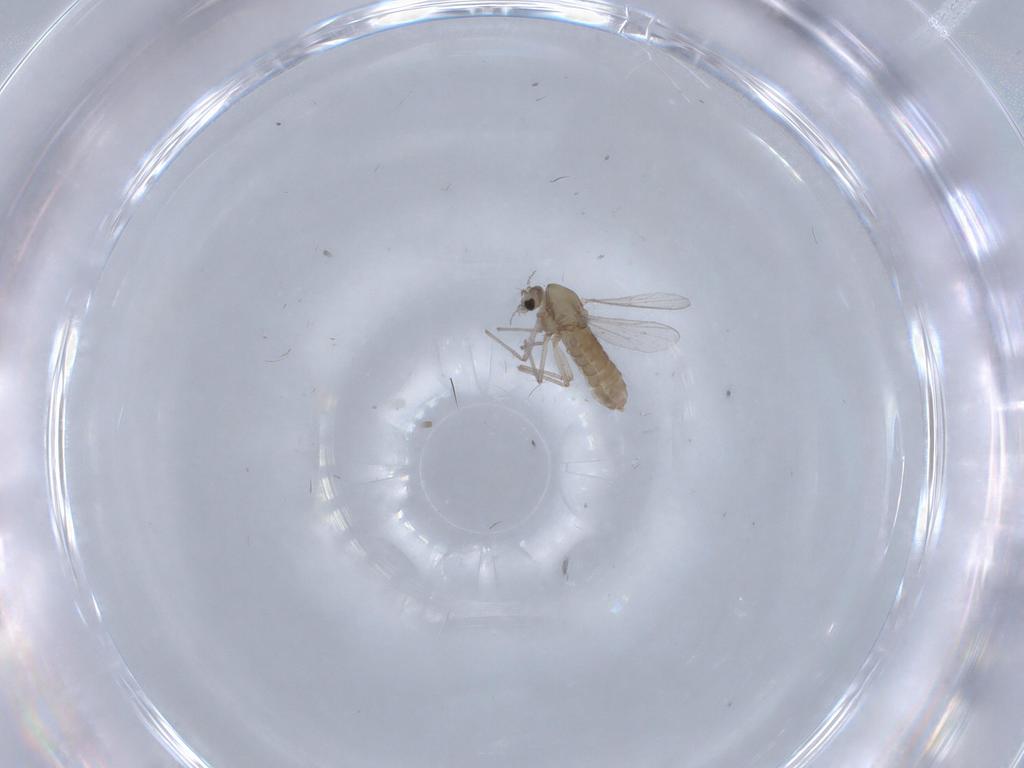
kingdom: Animalia
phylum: Arthropoda
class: Insecta
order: Diptera
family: Chironomidae
